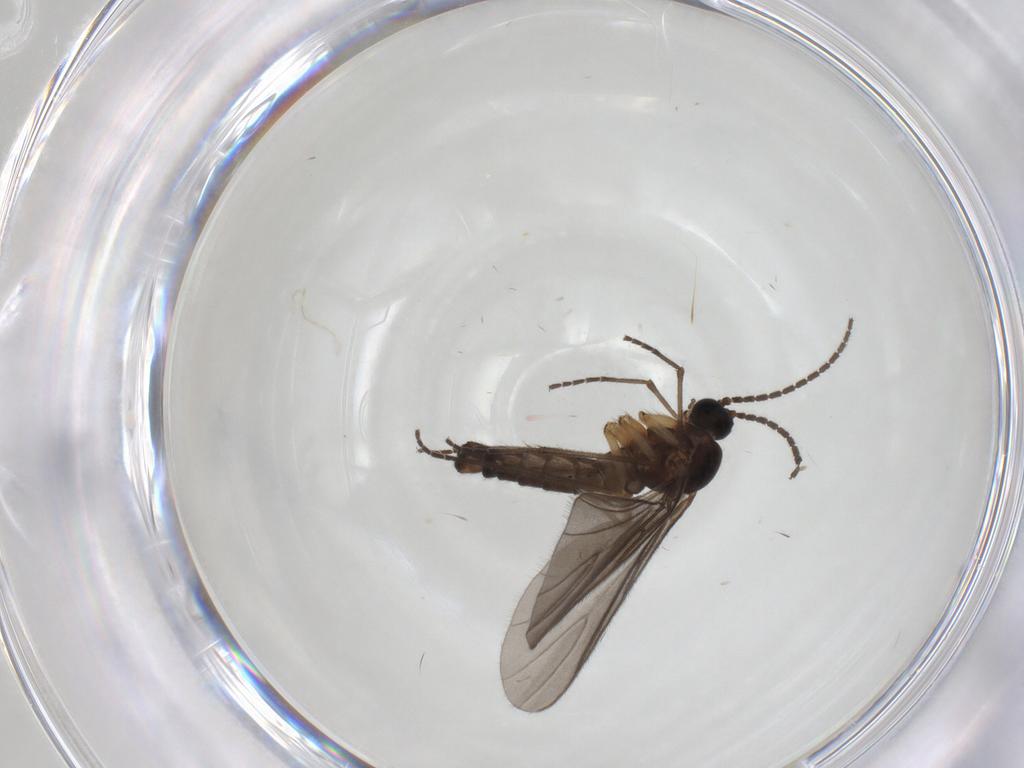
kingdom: Animalia
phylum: Arthropoda
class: Insecta
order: Diptera
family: Sciaridae
